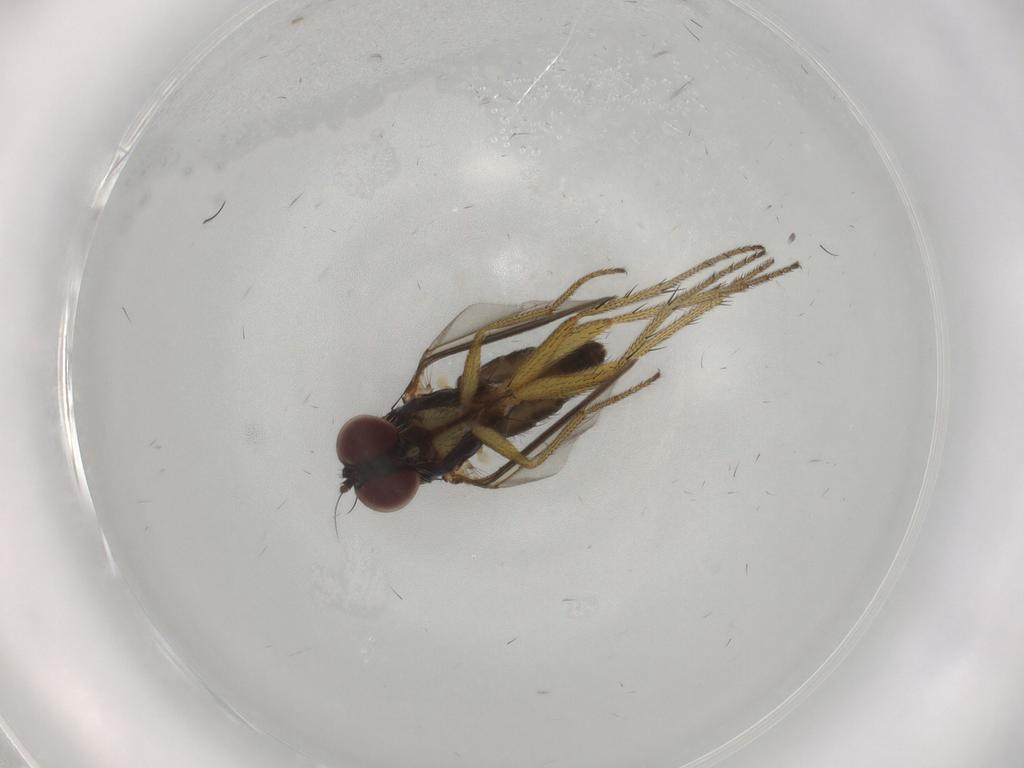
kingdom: Animalia
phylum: Arthropoda
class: Insecta
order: Diptera
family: Dolichopodidae
